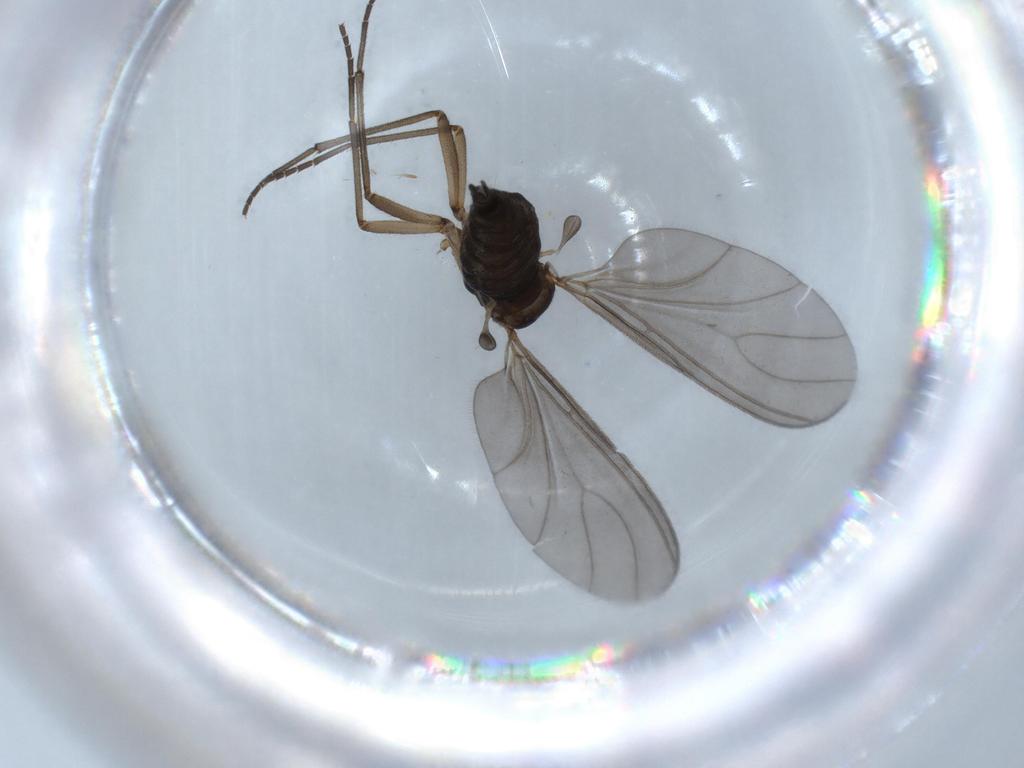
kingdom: Animalia
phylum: Arthropoda
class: Insecta
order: Diptera
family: Sciaridae
